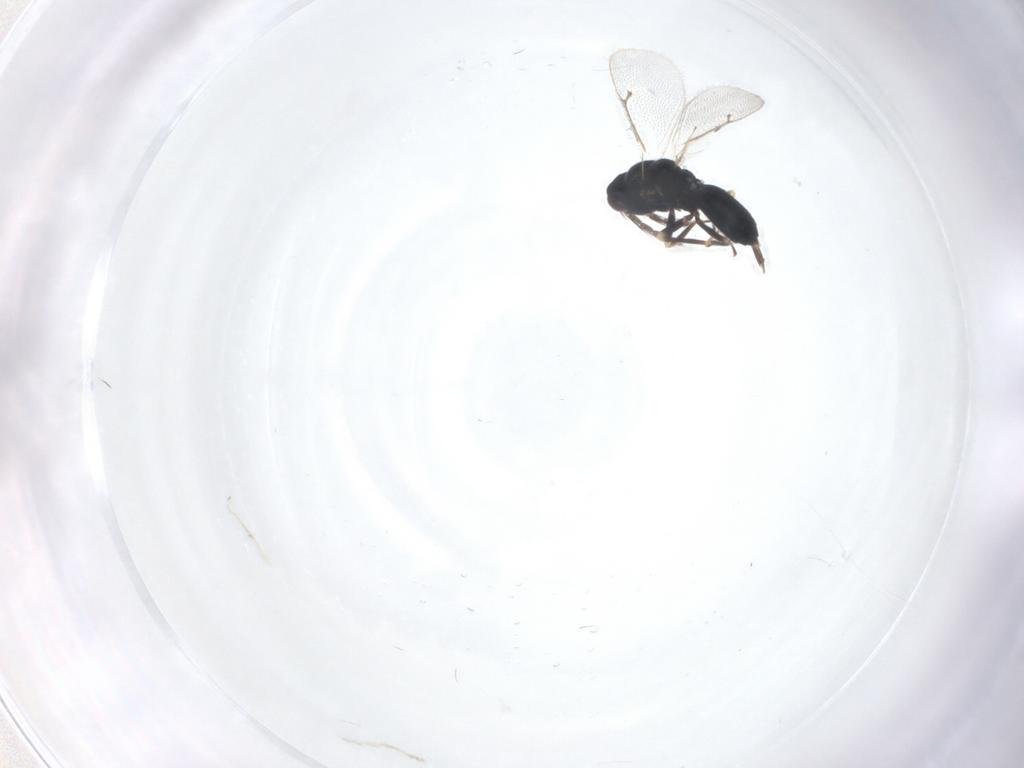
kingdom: Animalia
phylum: Arthropoda
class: Insecta
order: Hymenoptera
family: Eulophidae
